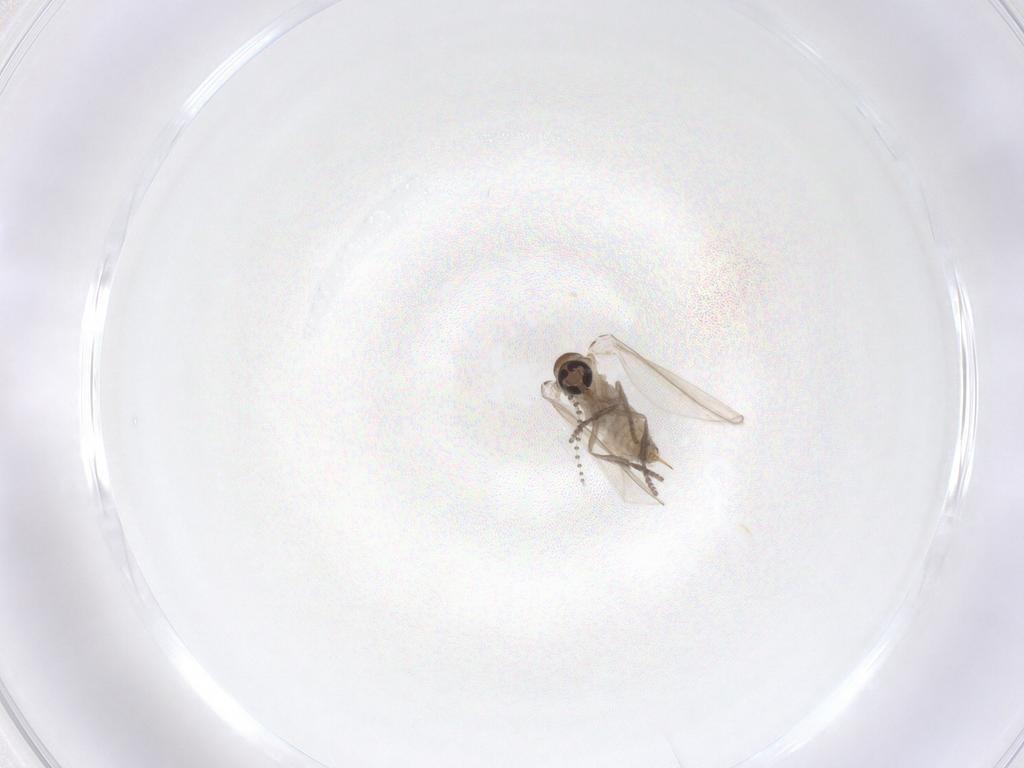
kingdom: Animalia
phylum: Arthropoda
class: Insecta
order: Diptera
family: Psychodidae
